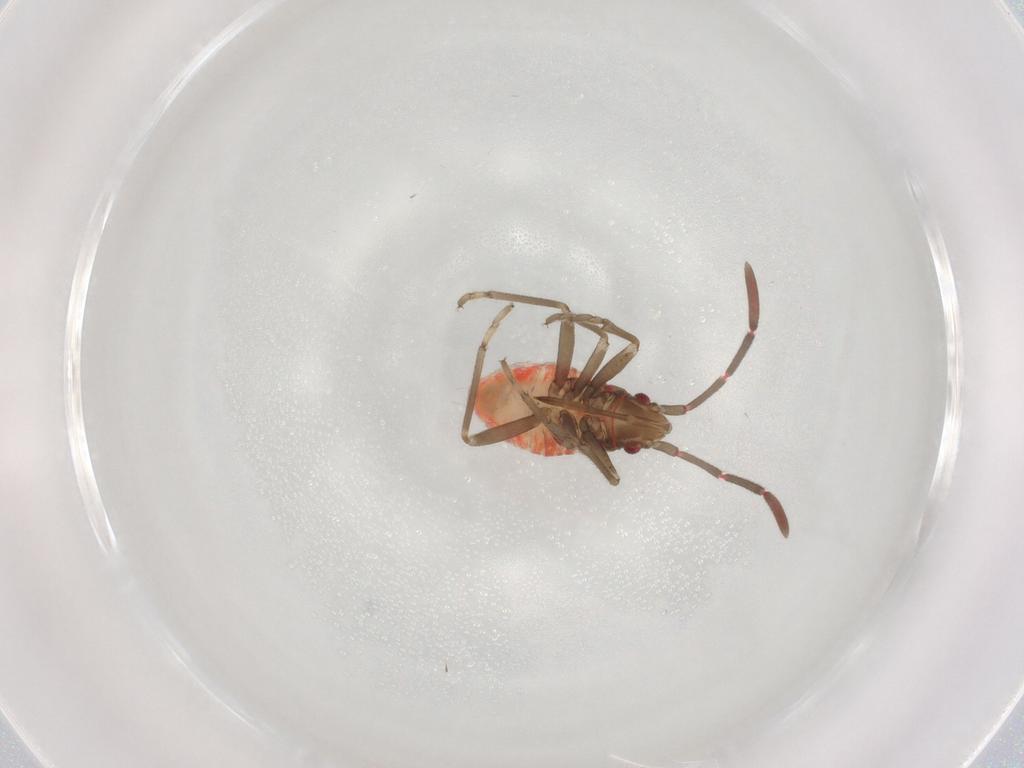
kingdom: Animalia
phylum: Arthropoda
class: Insecta
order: Hemiptera
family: Rhyparochromidae
